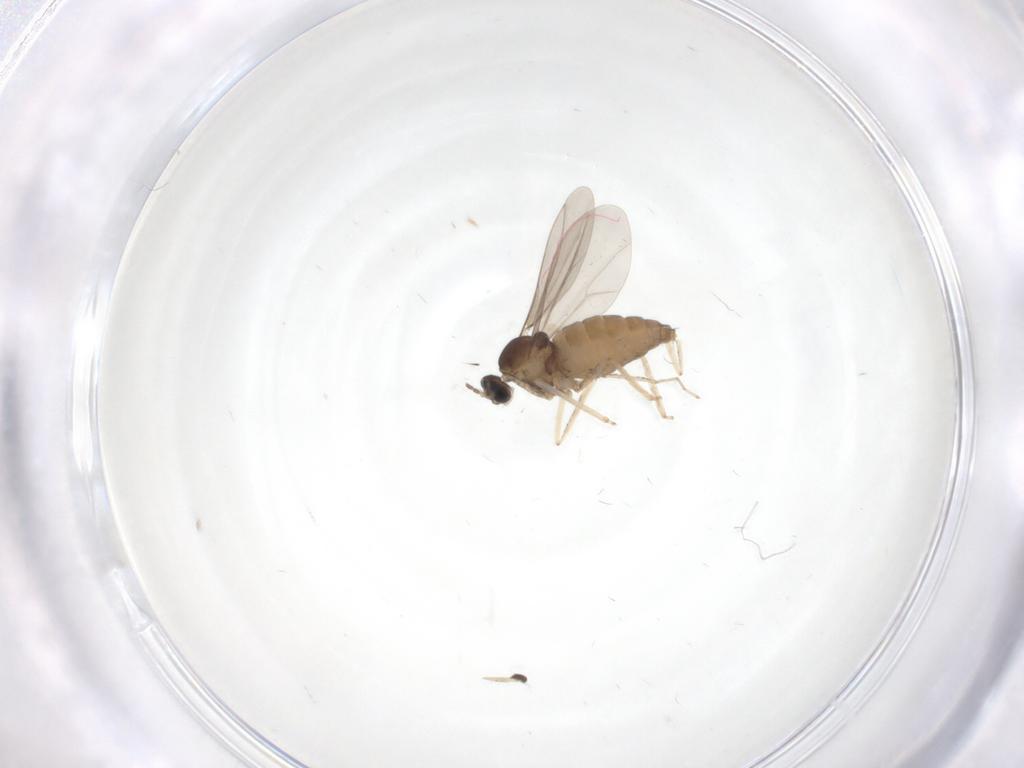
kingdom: Animalia
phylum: Arthropoda
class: Insecta
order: Diptera
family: Cecidomyiidae
